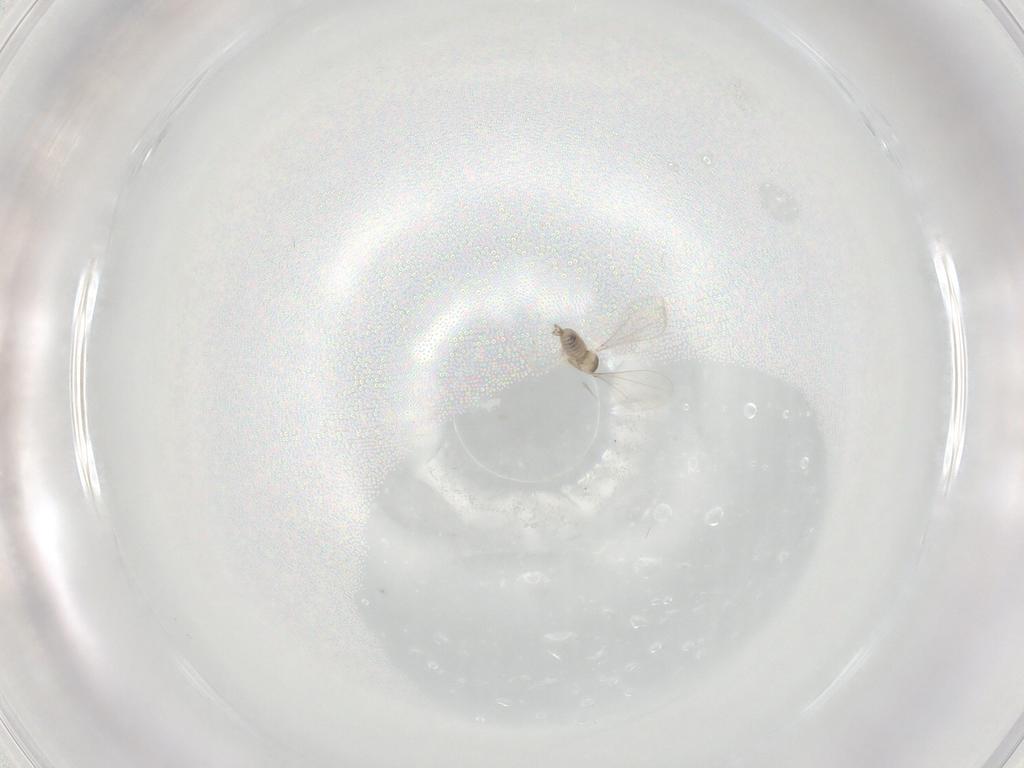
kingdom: Animalia
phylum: Arthropoda
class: Insecta
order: Diptera
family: Cecidomyiidae
